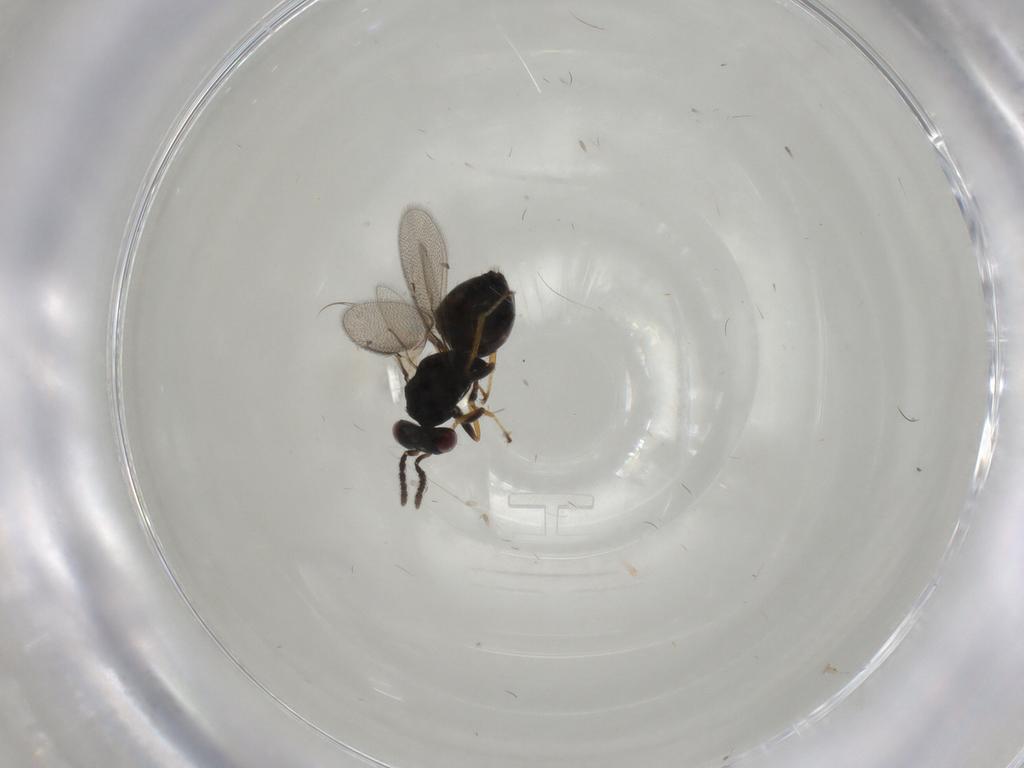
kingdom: Animalia
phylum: Arthropoda
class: Insecta
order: Hymenoptera
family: Eulophidae
